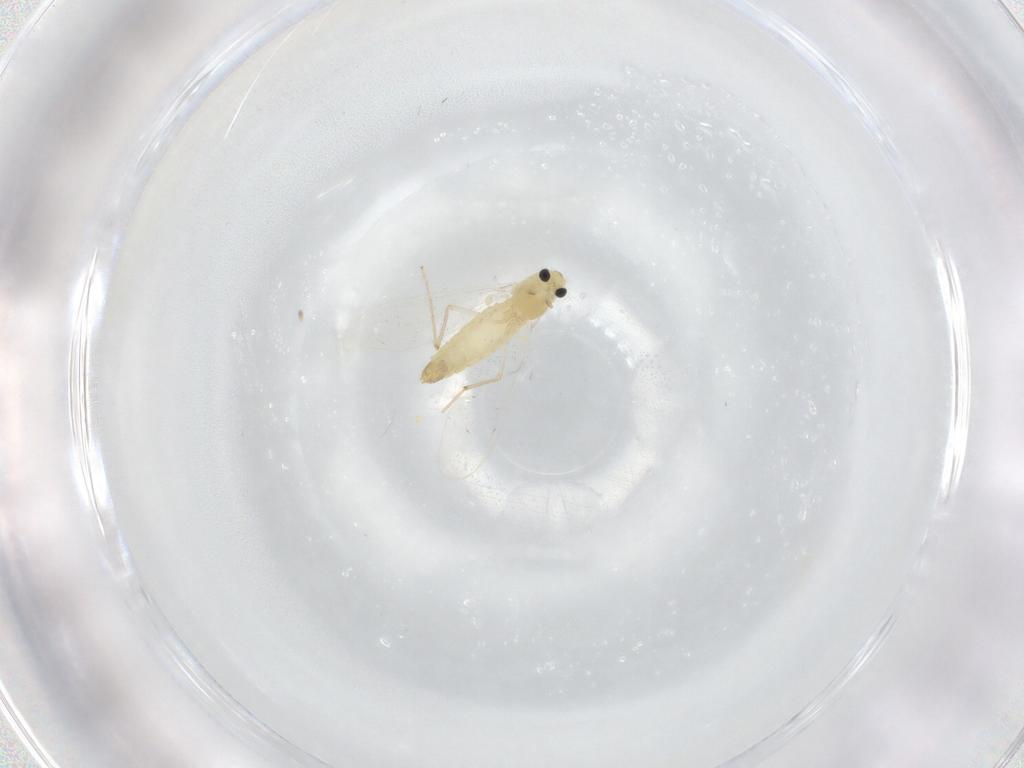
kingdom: Animalia
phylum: Arthropoda
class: Insecta
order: Diptera
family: Chironomidae
